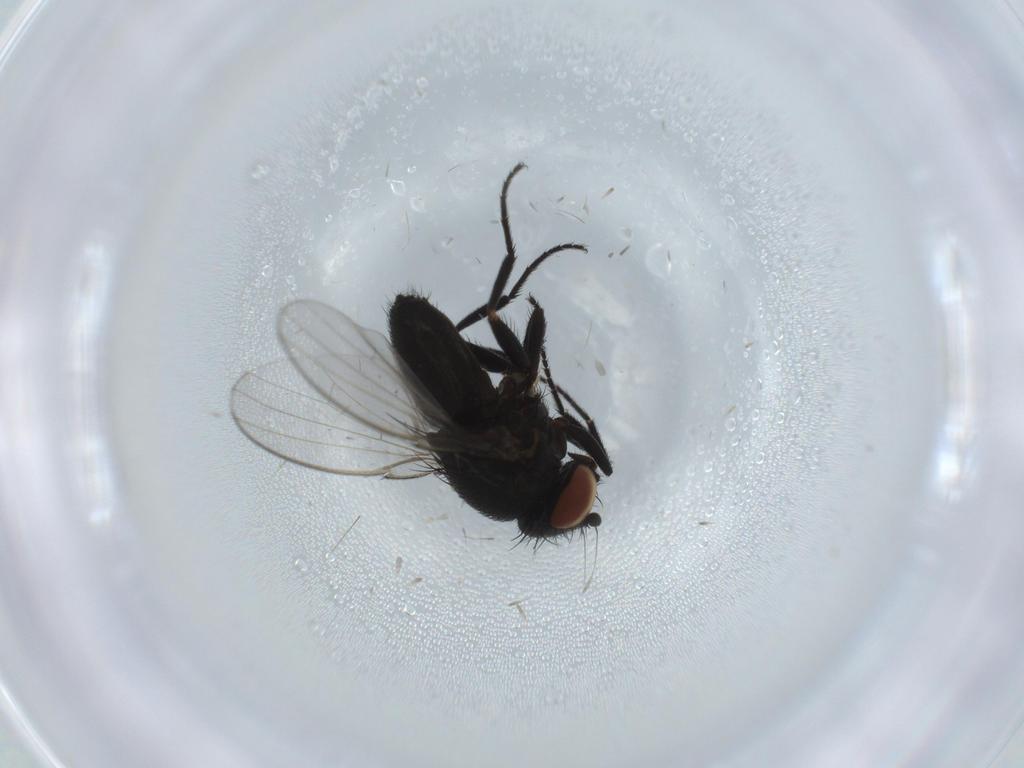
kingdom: Animalia
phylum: Arthropoda
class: Insecta
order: Diptera
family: Milichiidae
